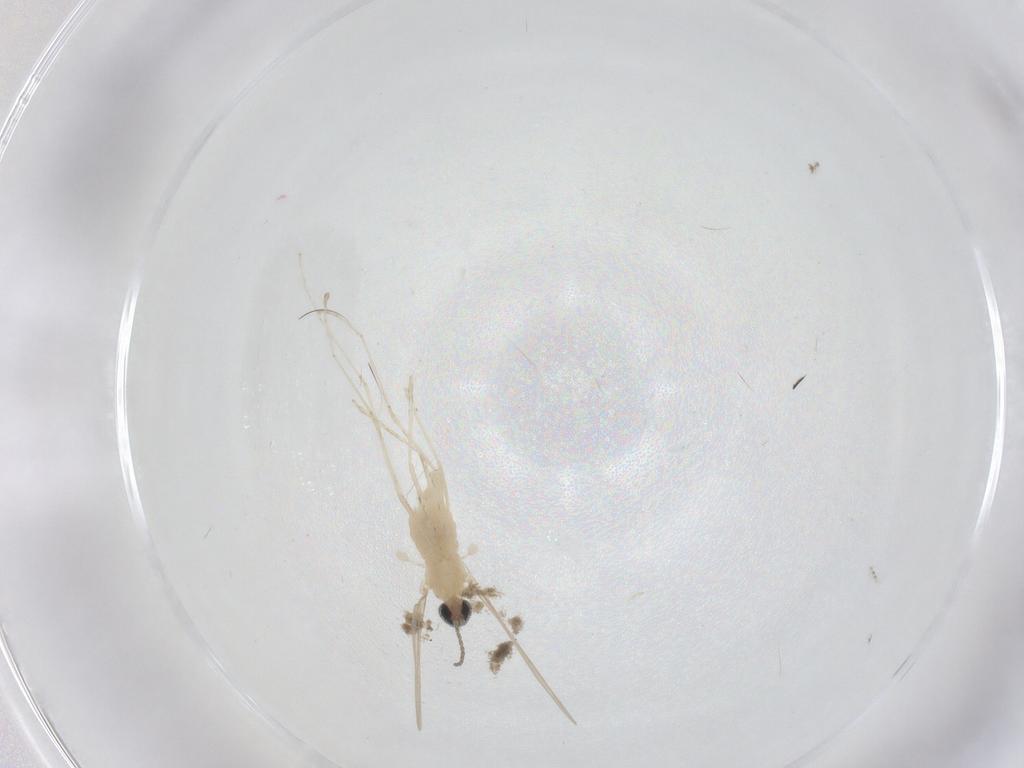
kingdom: Animalia
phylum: Arthropoda
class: Insecta
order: Diptera
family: Cecidomyiidae
